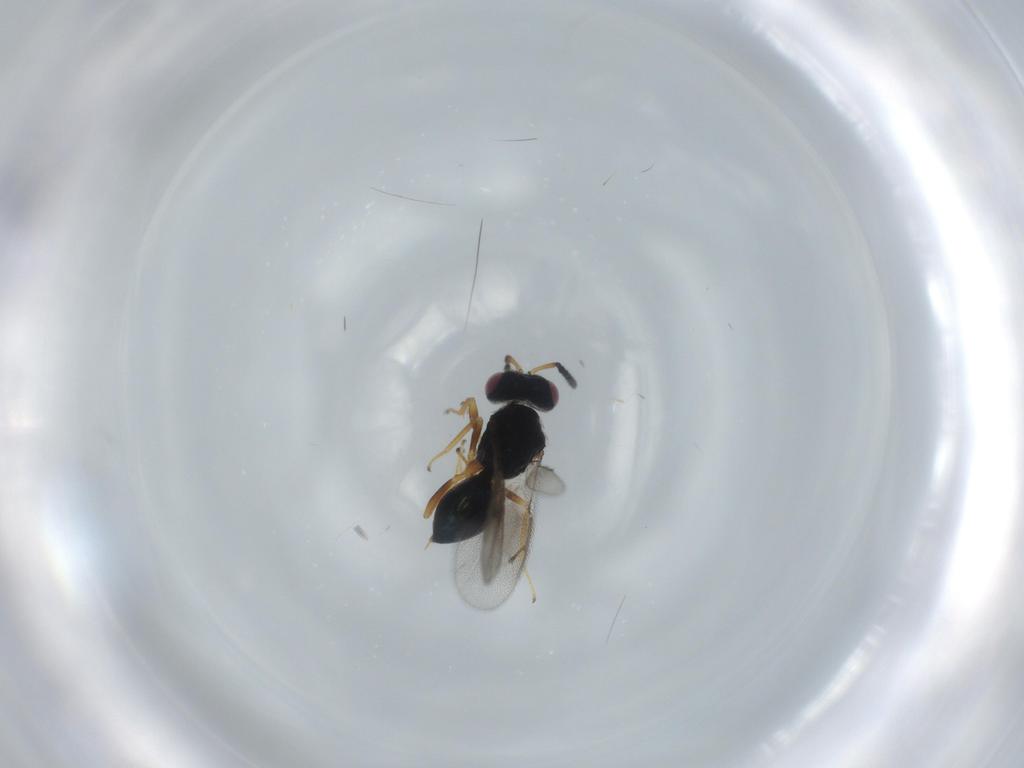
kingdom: Animalia
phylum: Arthropoda
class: Insecta
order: Hymenoptera
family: Pteromalidae
